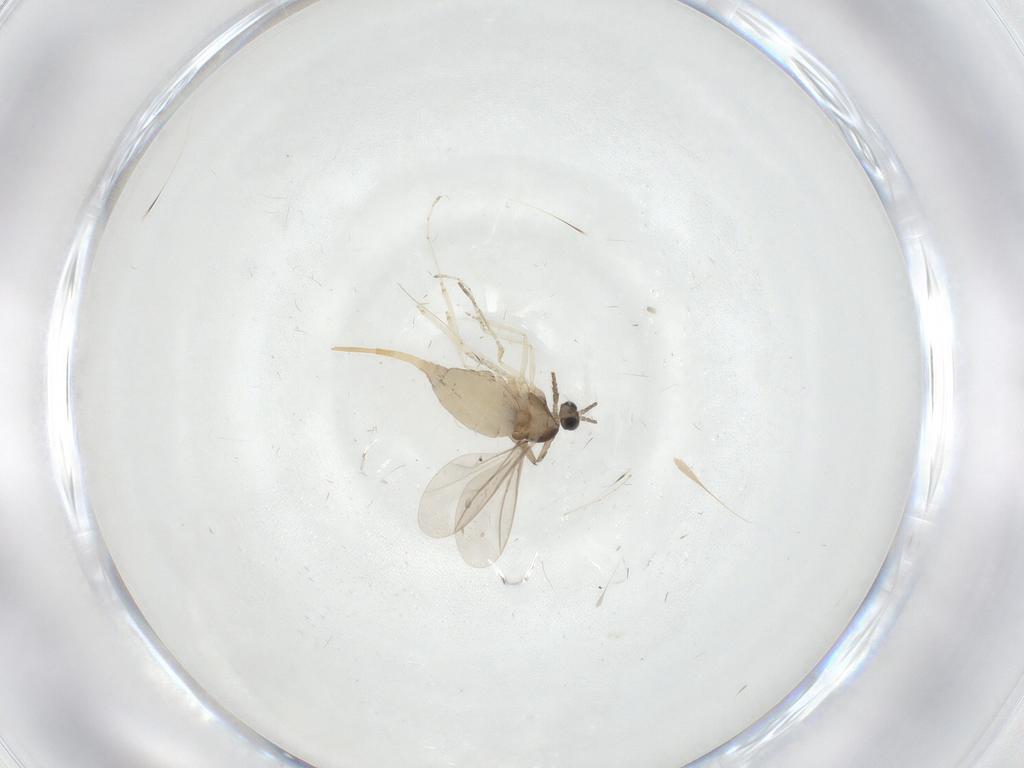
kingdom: Animalia
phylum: Arthropoda
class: Insecta
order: Diptera
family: Cecidomyiidae
